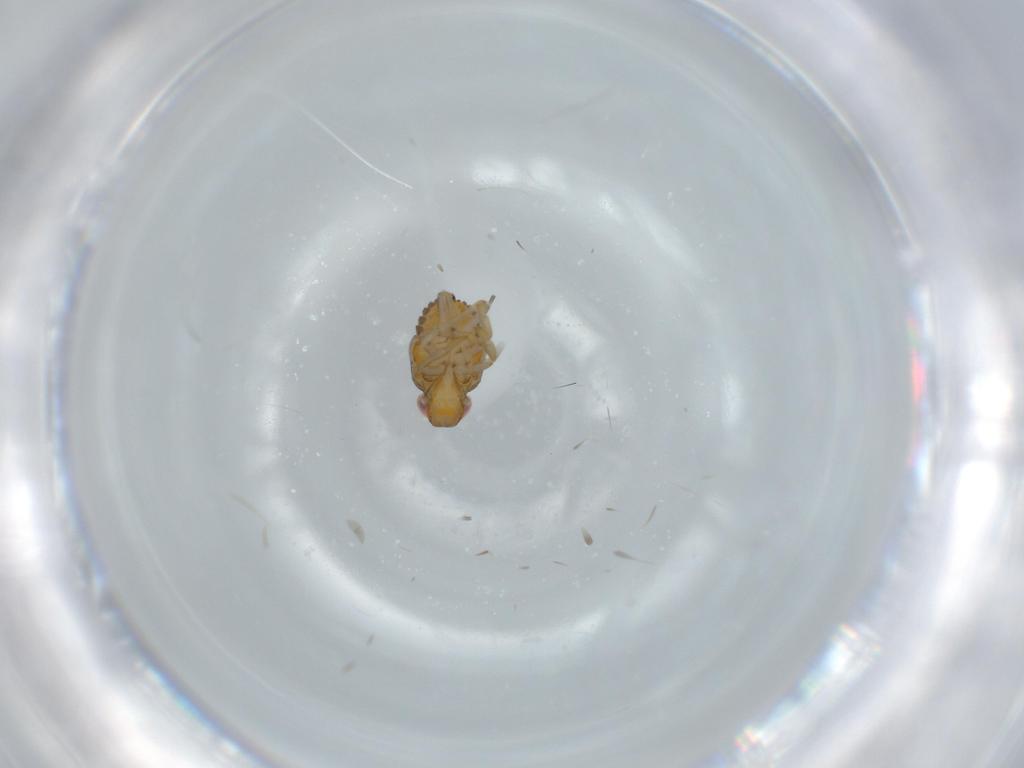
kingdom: Animalia
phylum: Arthropoda
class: Insecta
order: Hemiptera
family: Issidae
